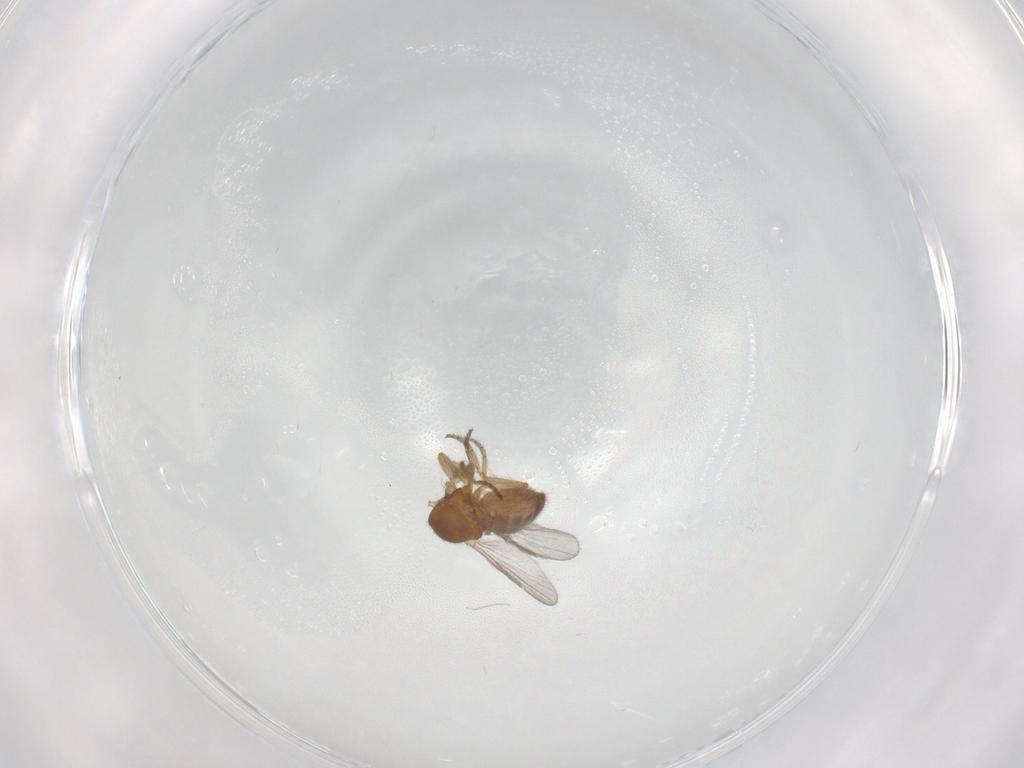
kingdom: Animalia
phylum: Arthropoda
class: Insecta
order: Diptera
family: Ceratopogonidae
